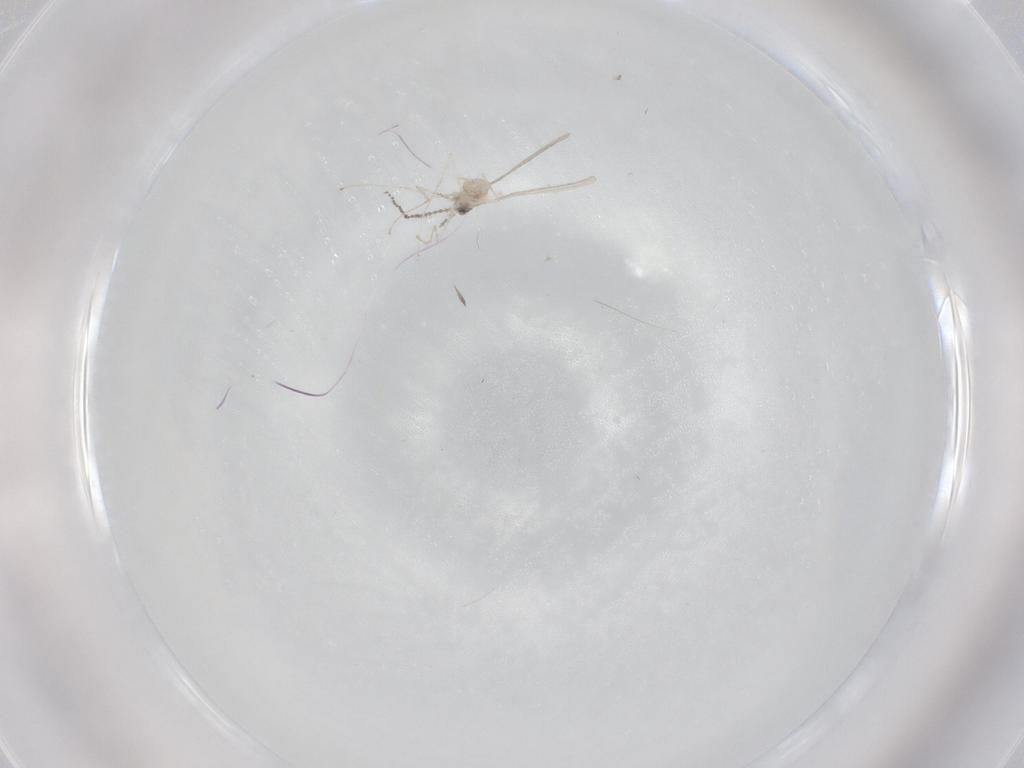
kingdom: Animalia
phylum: Arthropoda
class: Insecta
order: Diptera
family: Cecidomyiidae
